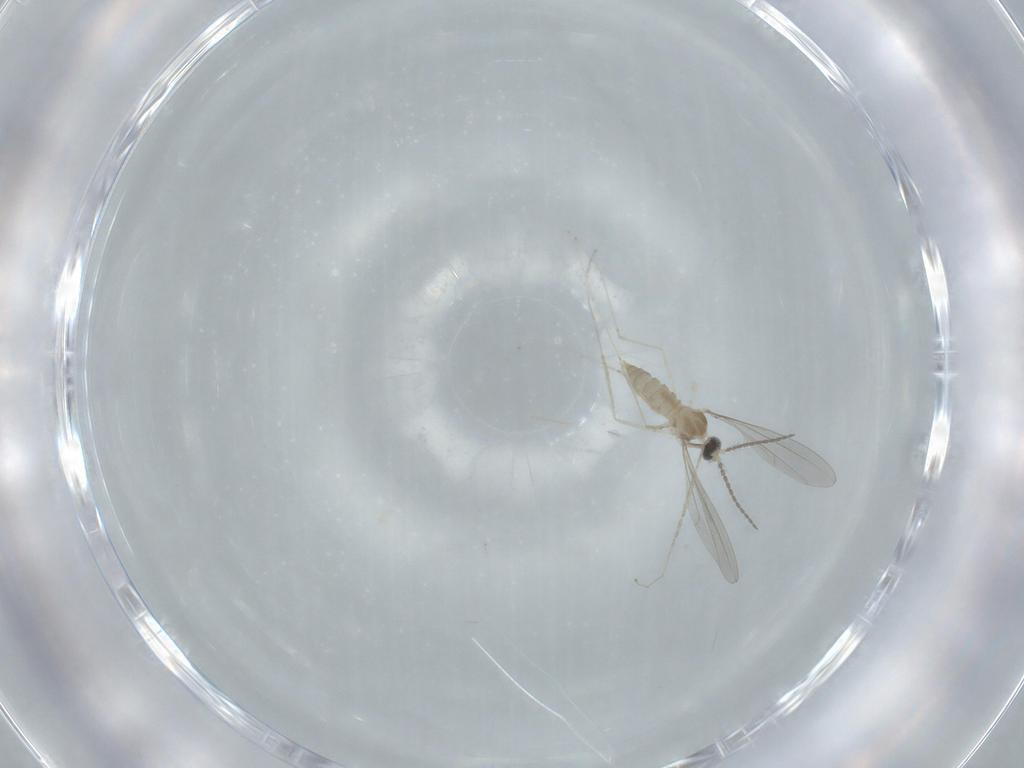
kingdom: Animalia
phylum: Arthropoda
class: Insecta
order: Diptera
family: Cecidomyiidae
